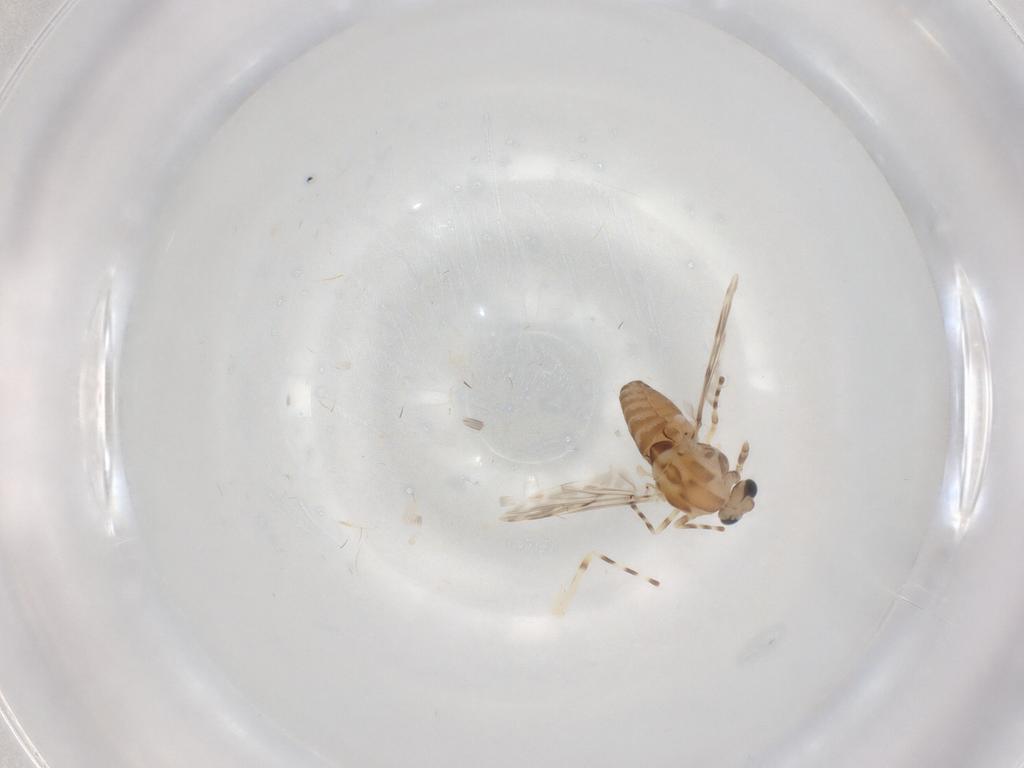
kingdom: Animalia
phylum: Arthropoda
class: Insecta
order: Diptera
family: Chironomidae
